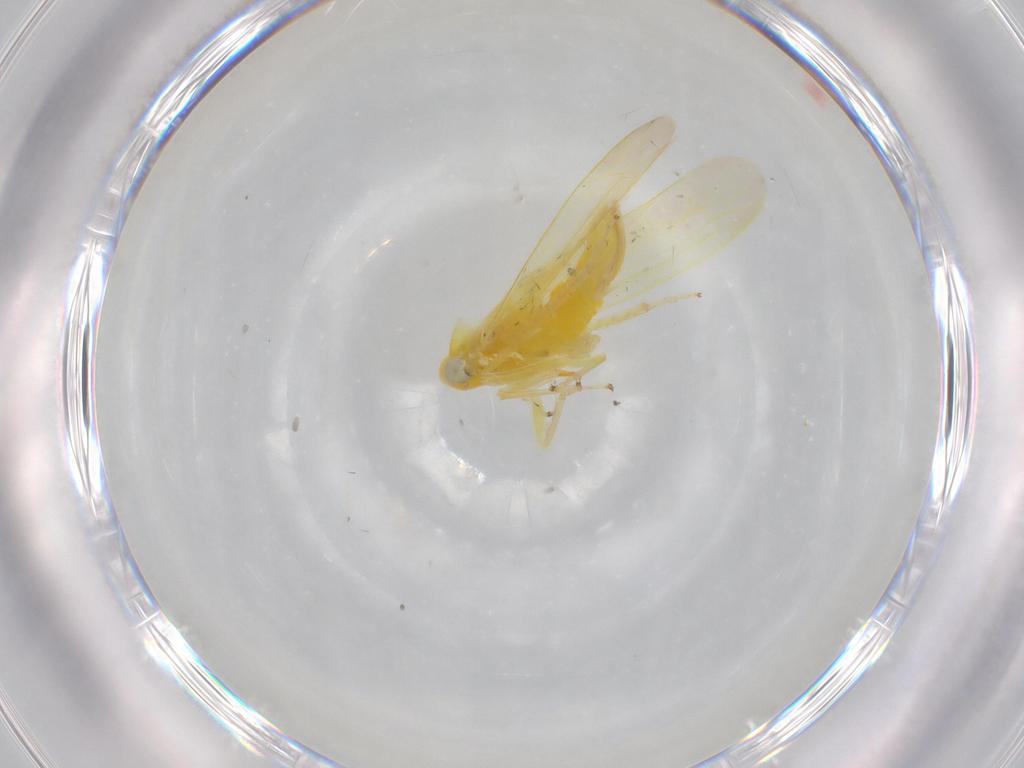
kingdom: Animalia
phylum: Arthropoda
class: Insecta
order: Hemiptera
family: Cicadellidae
